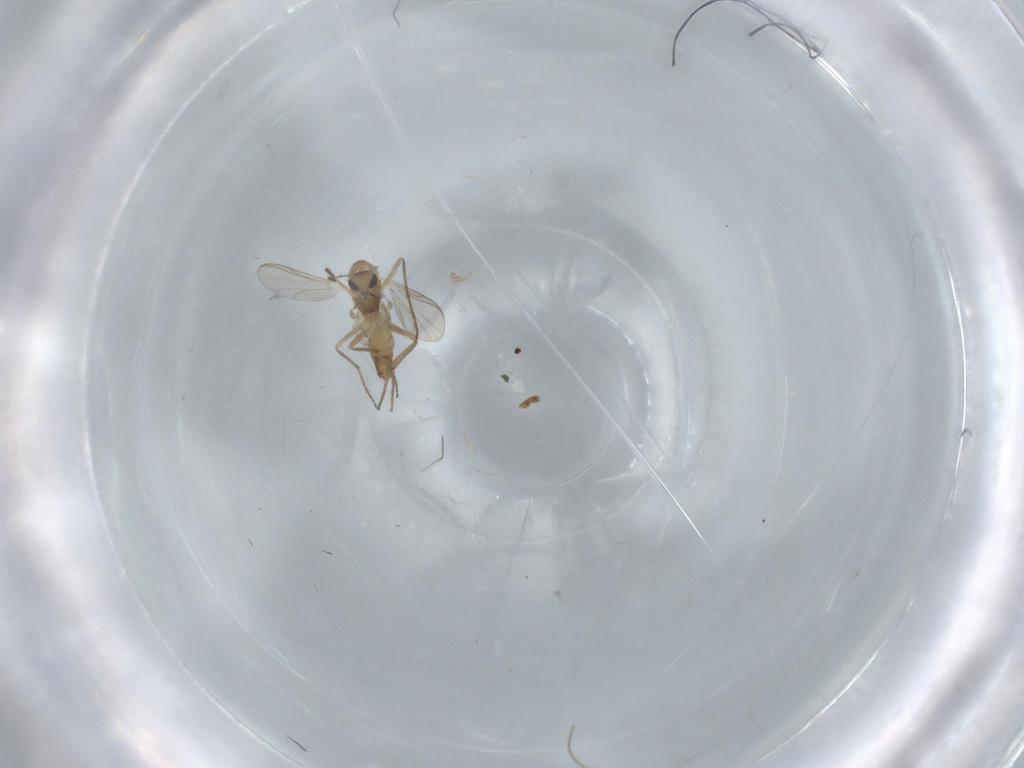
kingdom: Animalia
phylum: Arthropoda
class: Insecta
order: Diptera
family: Chironomidae
